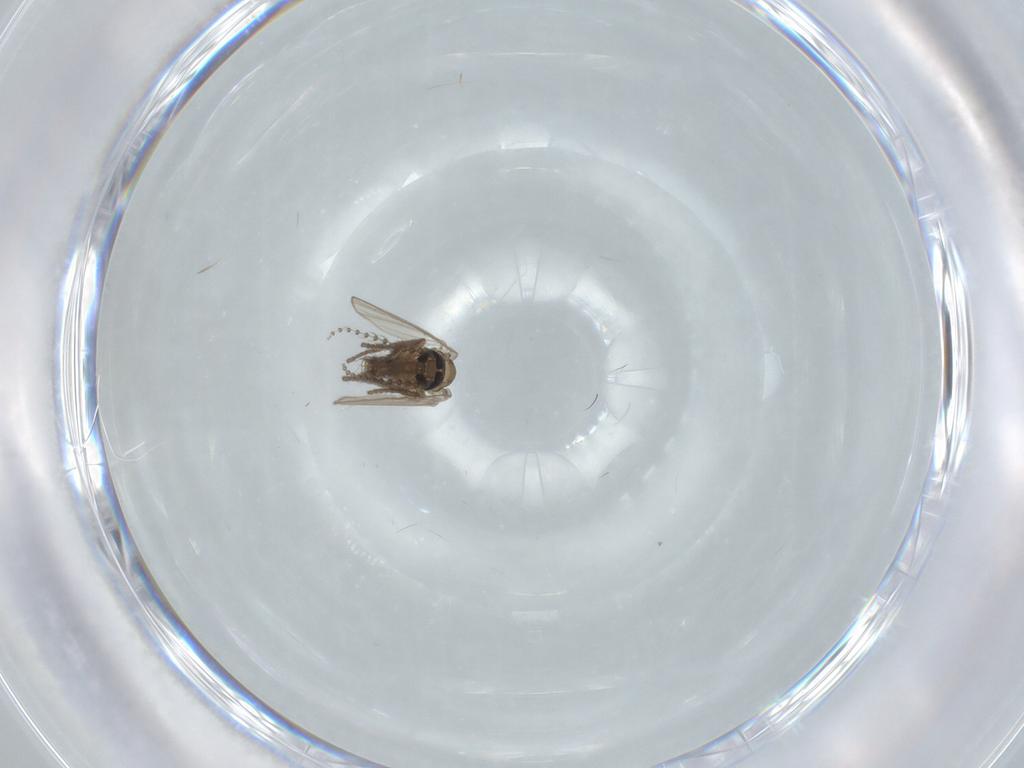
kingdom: Animalia
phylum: Arthropoda
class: Insecta
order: Diptera
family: Psychodidae
